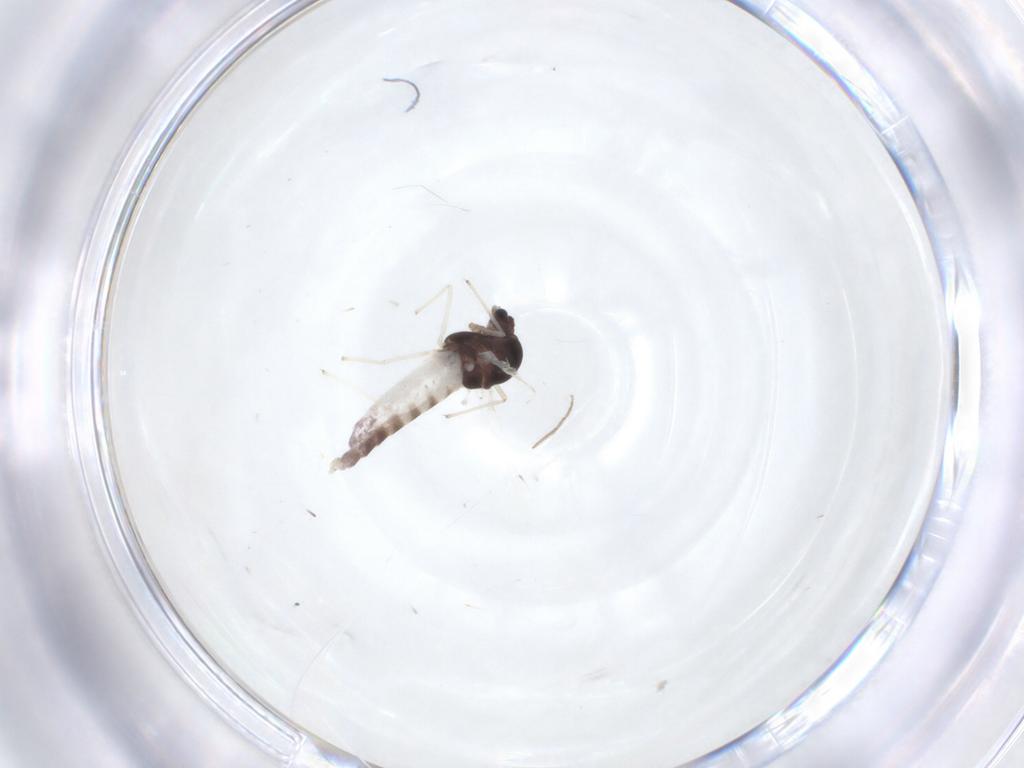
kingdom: Animalia
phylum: Arthropoda
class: Insecta
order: Diptera
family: Chironomidae
